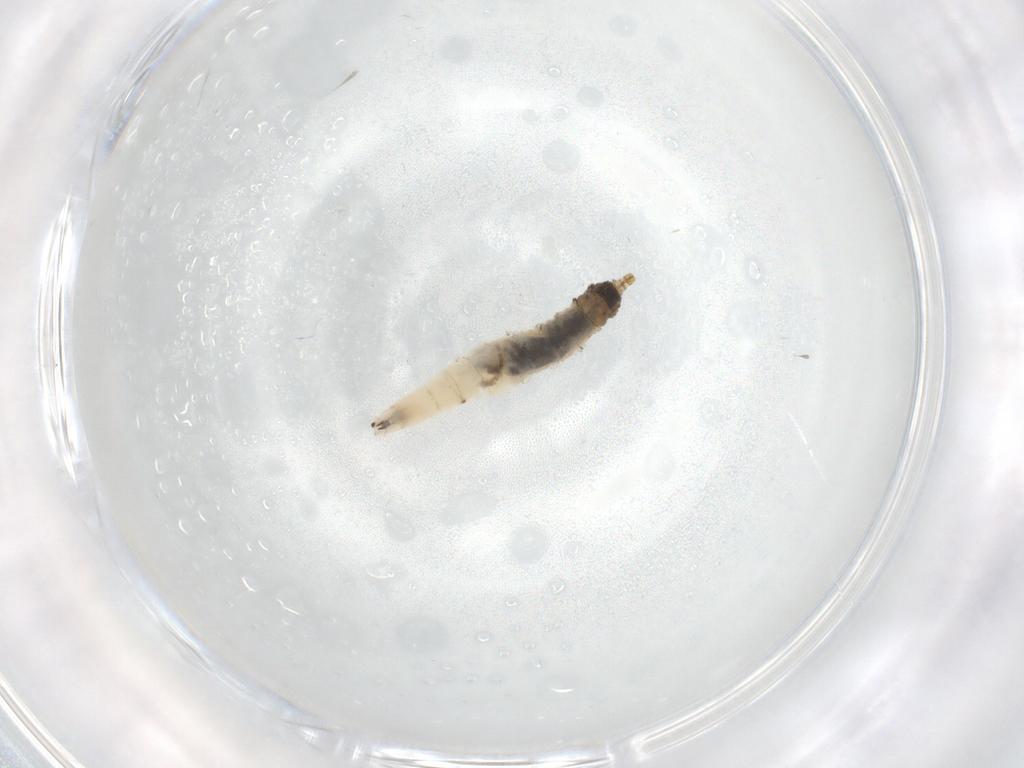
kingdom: Animalia
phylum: Arthropoda
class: Insecta
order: Diptera
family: Drosophilidae
